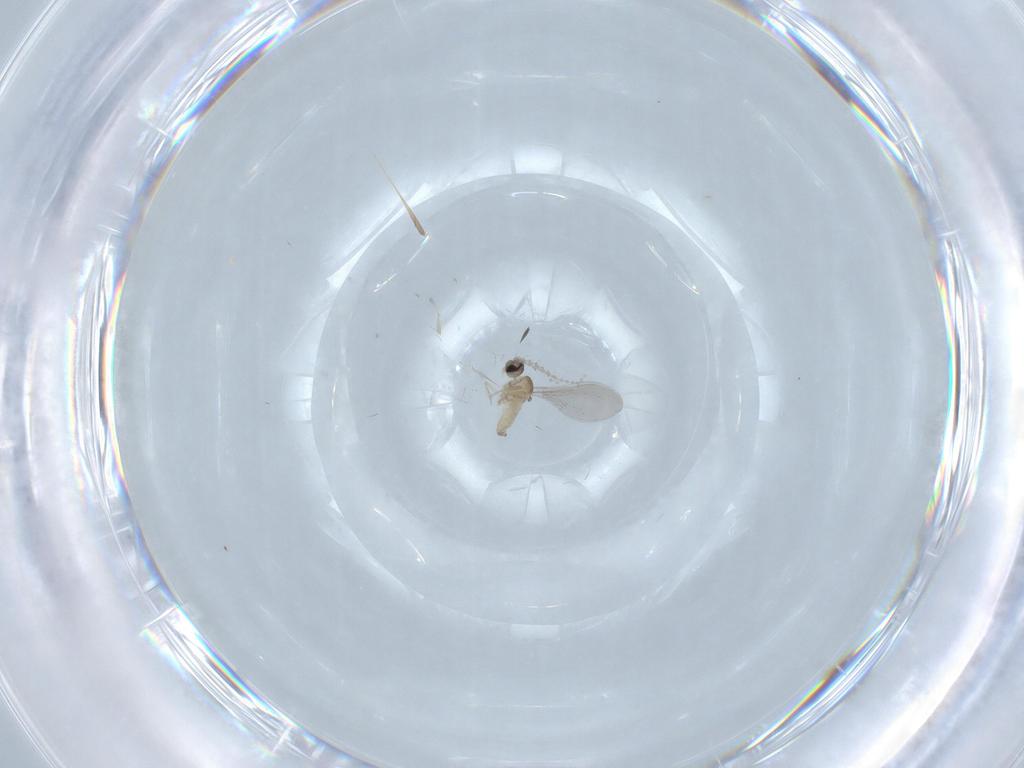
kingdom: Animalia
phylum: Arthropoda
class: Insecta
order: Diptera
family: Cecidomyiidae
